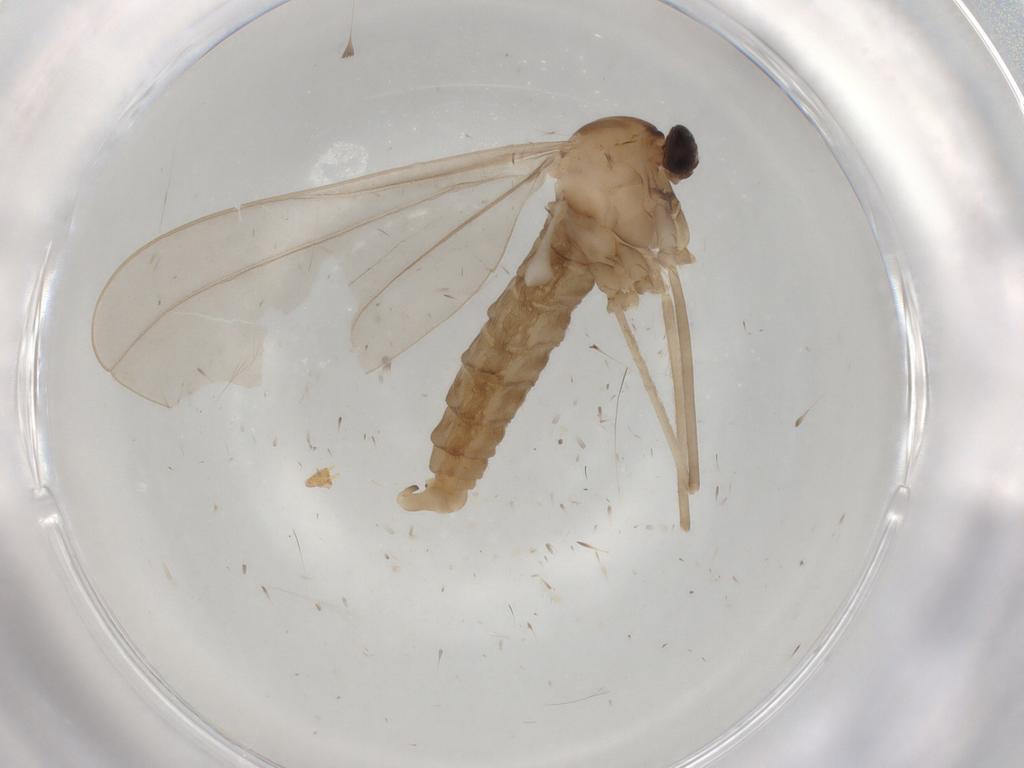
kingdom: Animalia
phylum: Arthropoda
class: Insecta
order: Diptera
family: Cecidomyiidae
